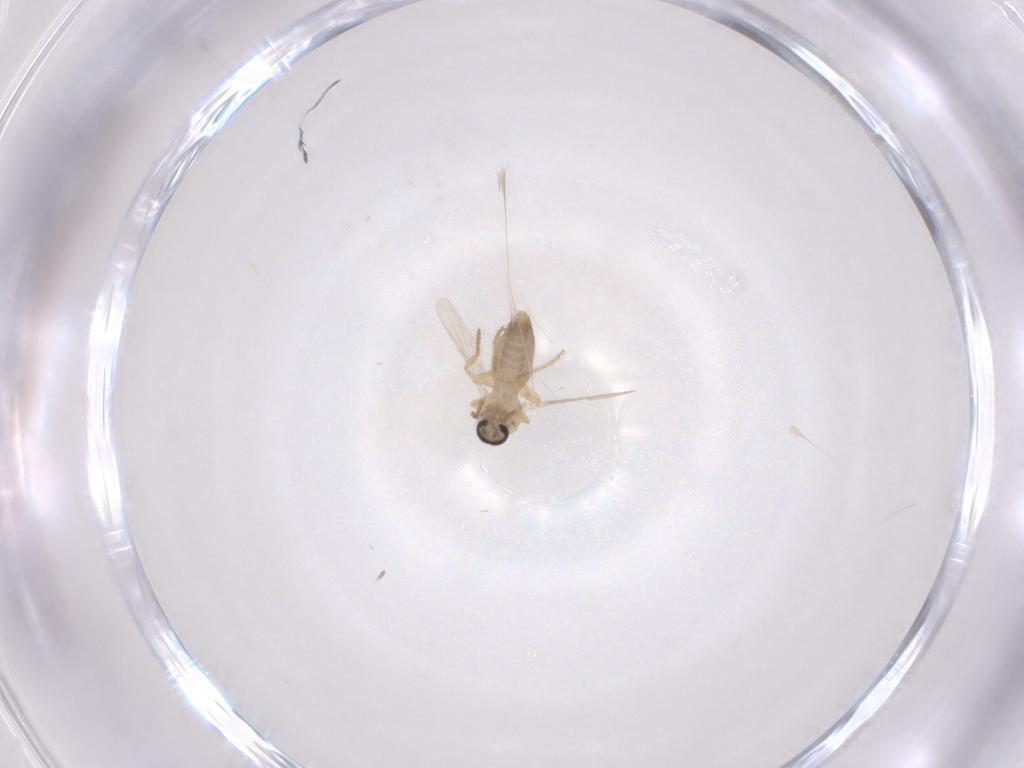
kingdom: Animalia
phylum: Arthropoda
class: Insecta
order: Diptera
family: Ceratopogonidae
